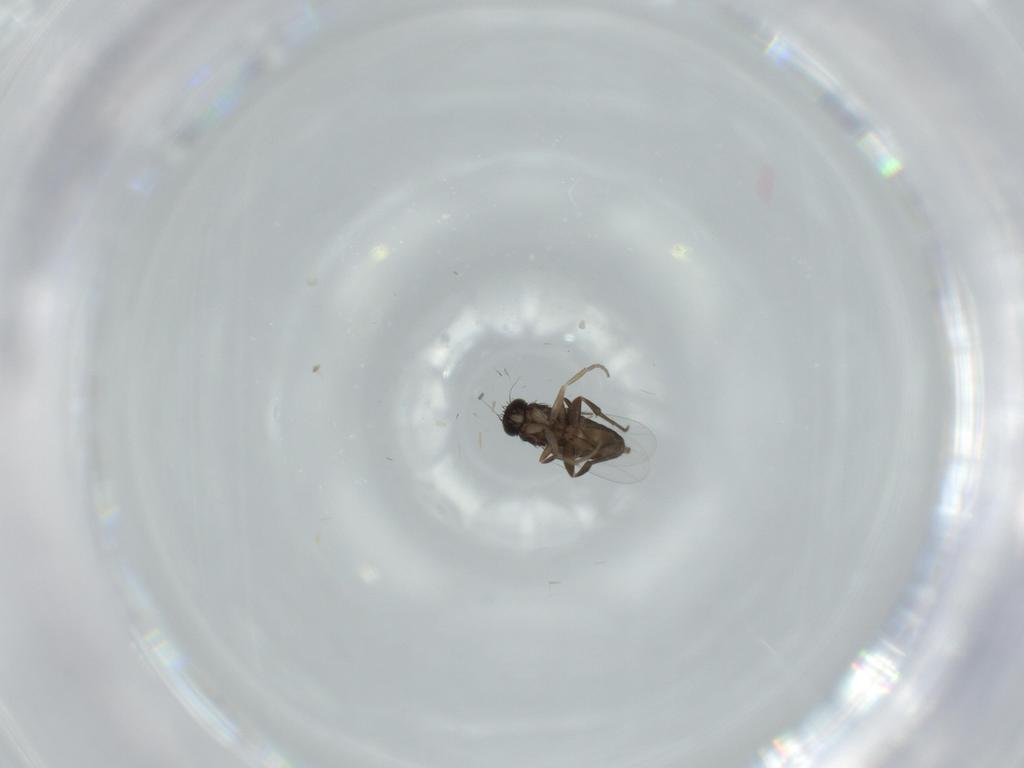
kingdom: Animalia
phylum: Arthropoda
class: Insecta
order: Diptera
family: Phoridae
